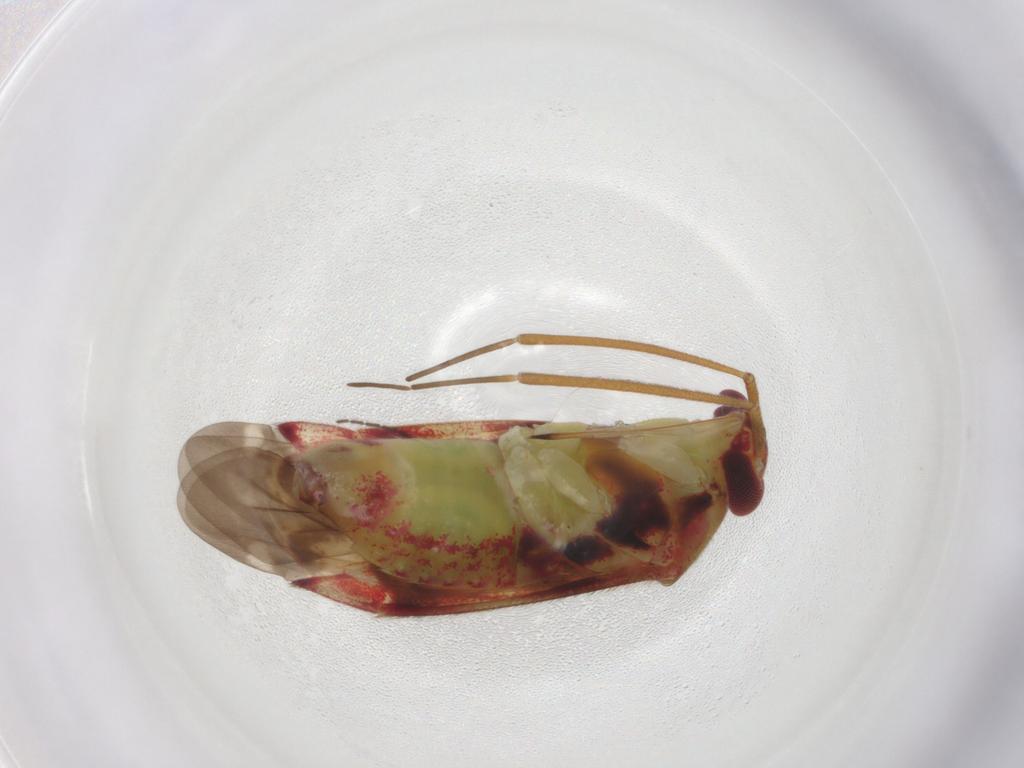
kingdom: Animalia
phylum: Arthropoda
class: Insecta
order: Hemiptera
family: Miridae
